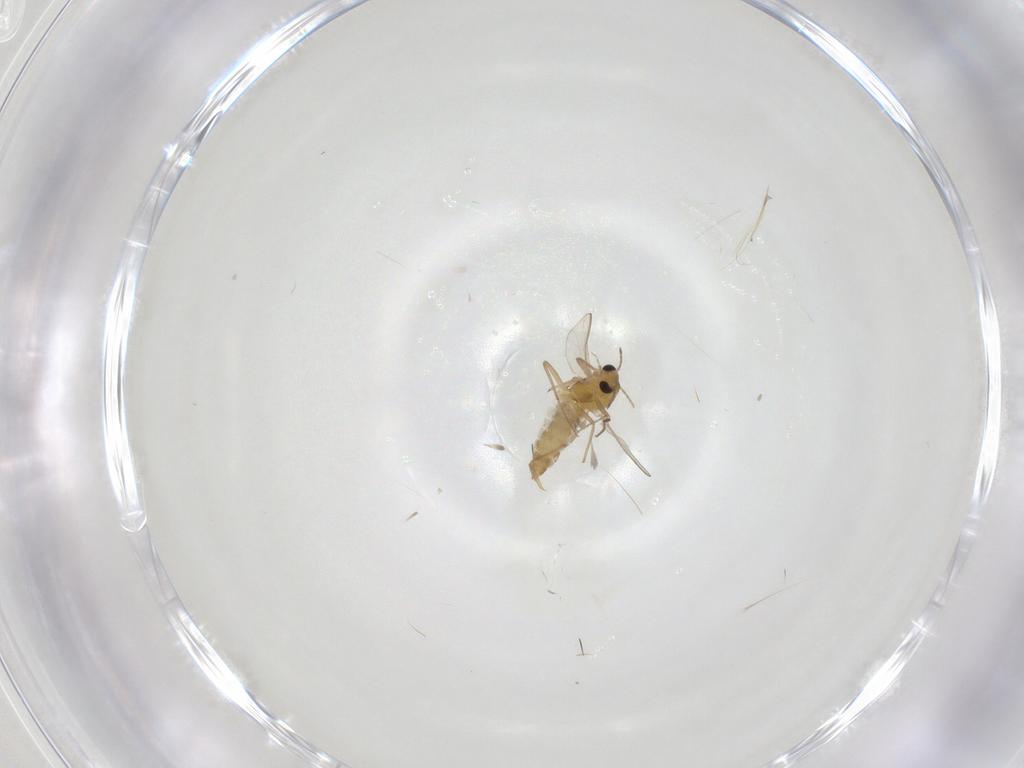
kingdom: Animalia
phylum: Arthropoda
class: Insecta
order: Diptera
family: Chironomidae
